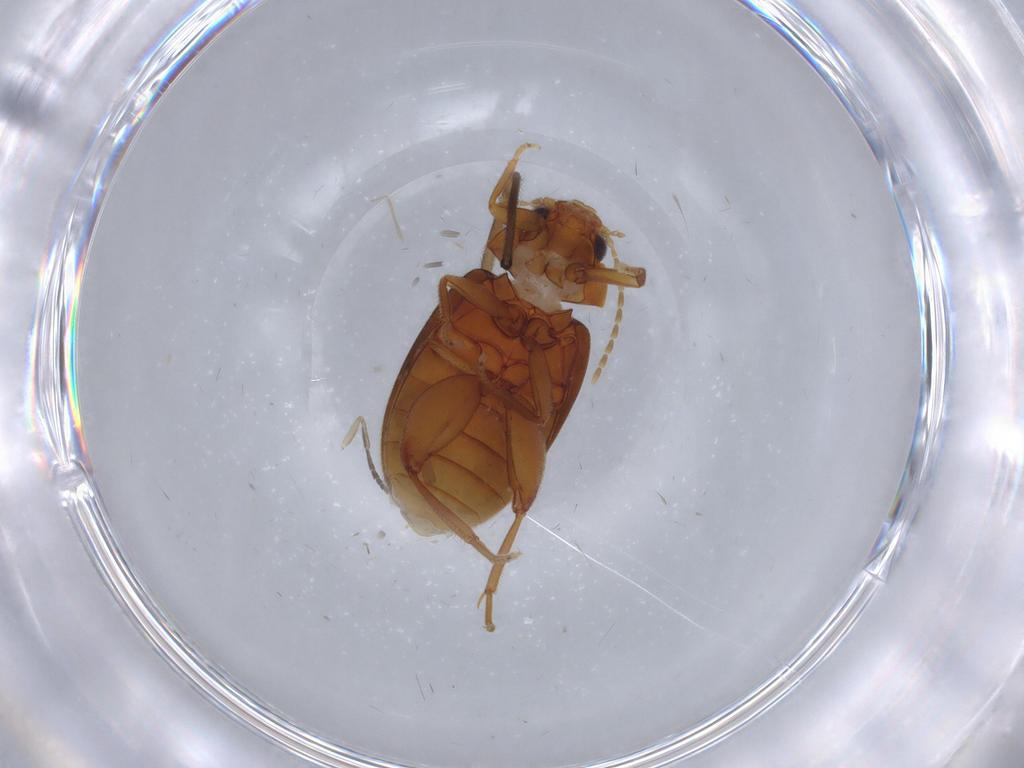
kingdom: Animalia
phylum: Arthropoda
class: Insecta
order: Coleoptera
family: Scirtidae
